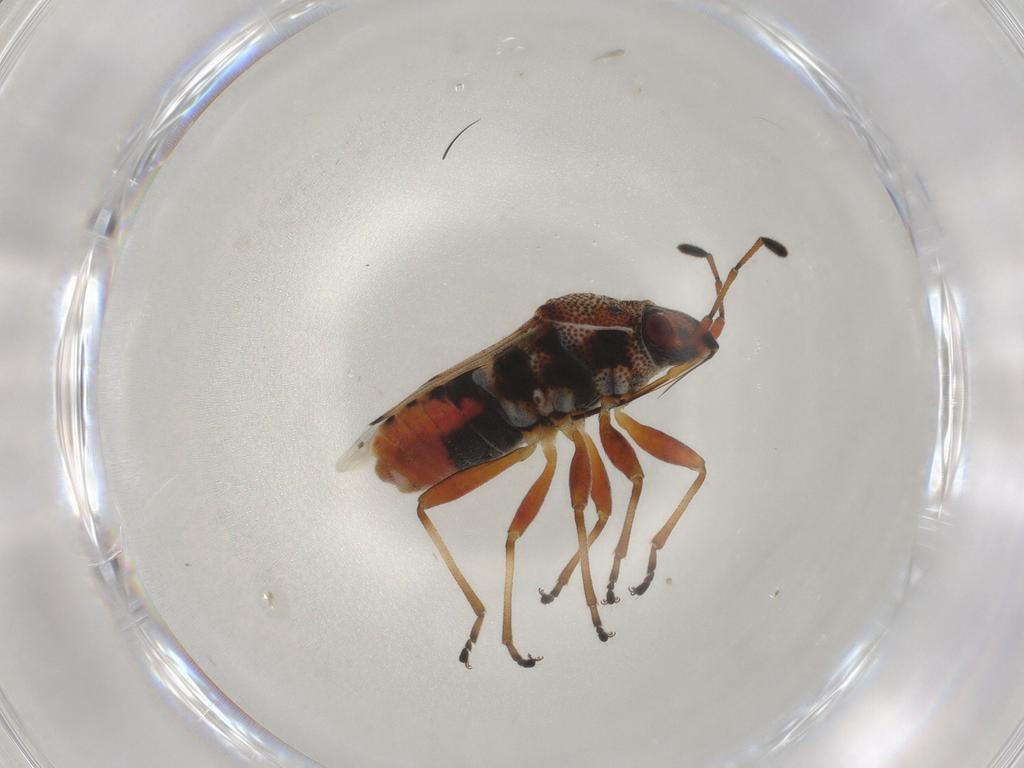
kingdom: Animalia
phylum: Arthropoda
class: Insecta
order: Hemiptera
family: Lygaeidae
